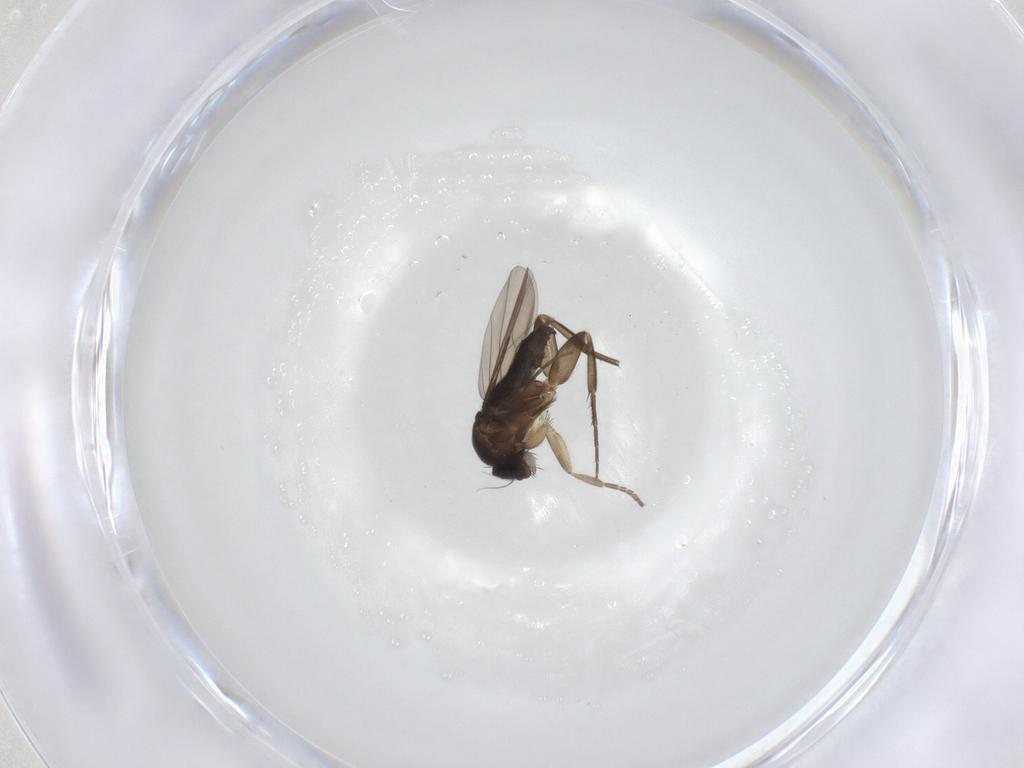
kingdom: Animalia
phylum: Arthropoda
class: Insecta
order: Diptera
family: Phoridae
